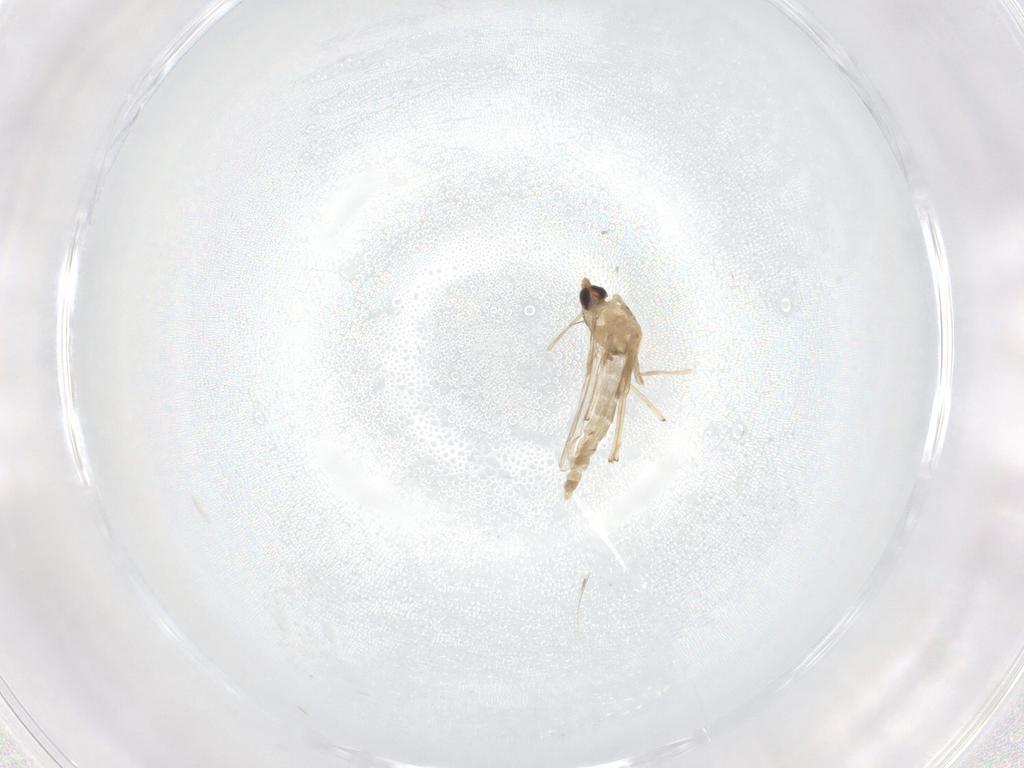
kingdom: Animalia
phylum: Arthropoda
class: Insecta
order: Diptera
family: Chironomidae
